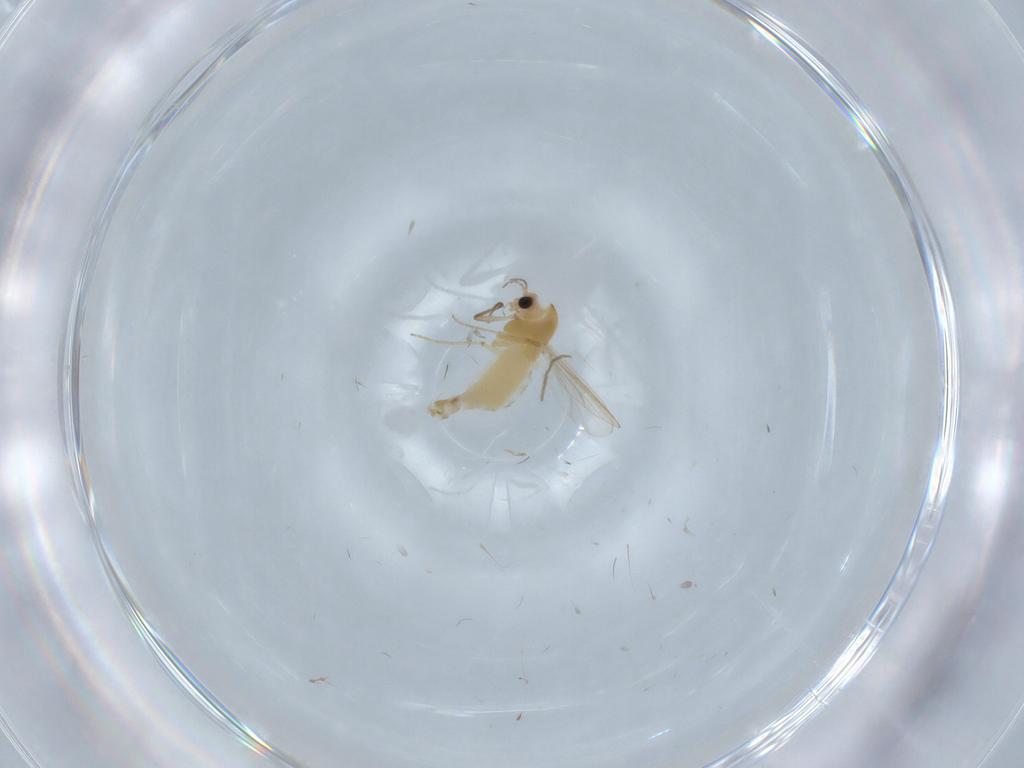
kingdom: Animalia
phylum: Arthropoda
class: Insecta
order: Diptera
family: Chironomidae
